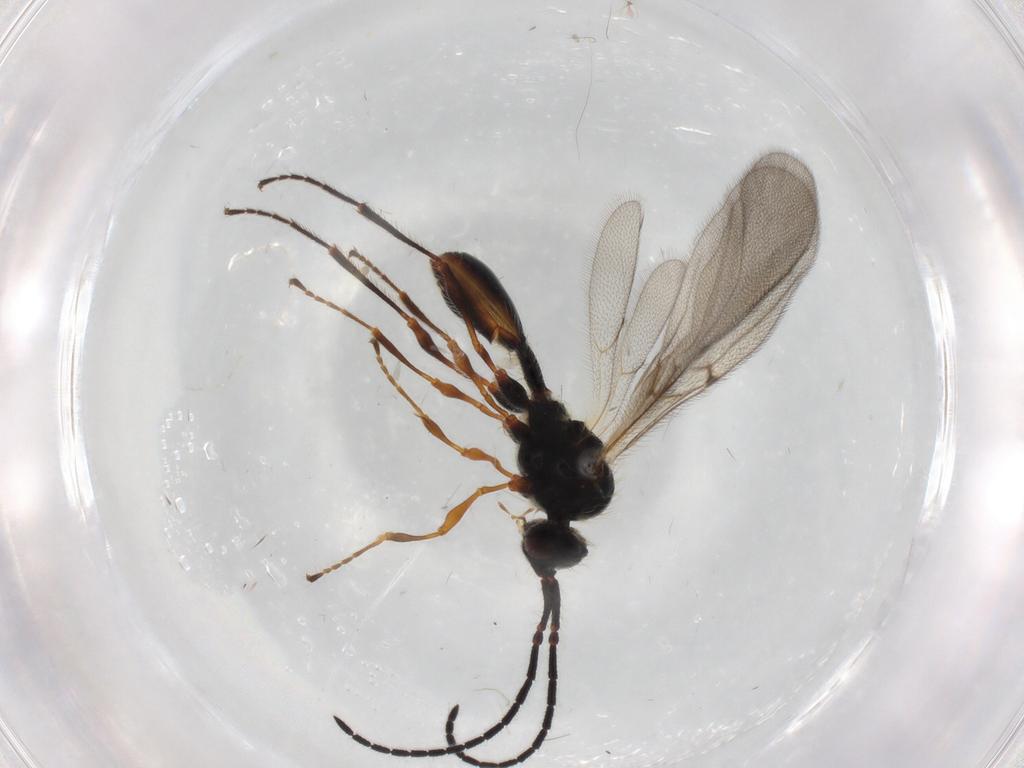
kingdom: Animalia
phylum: Arthropoda
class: Insecta
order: Hymenoptera
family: Diapriidae
